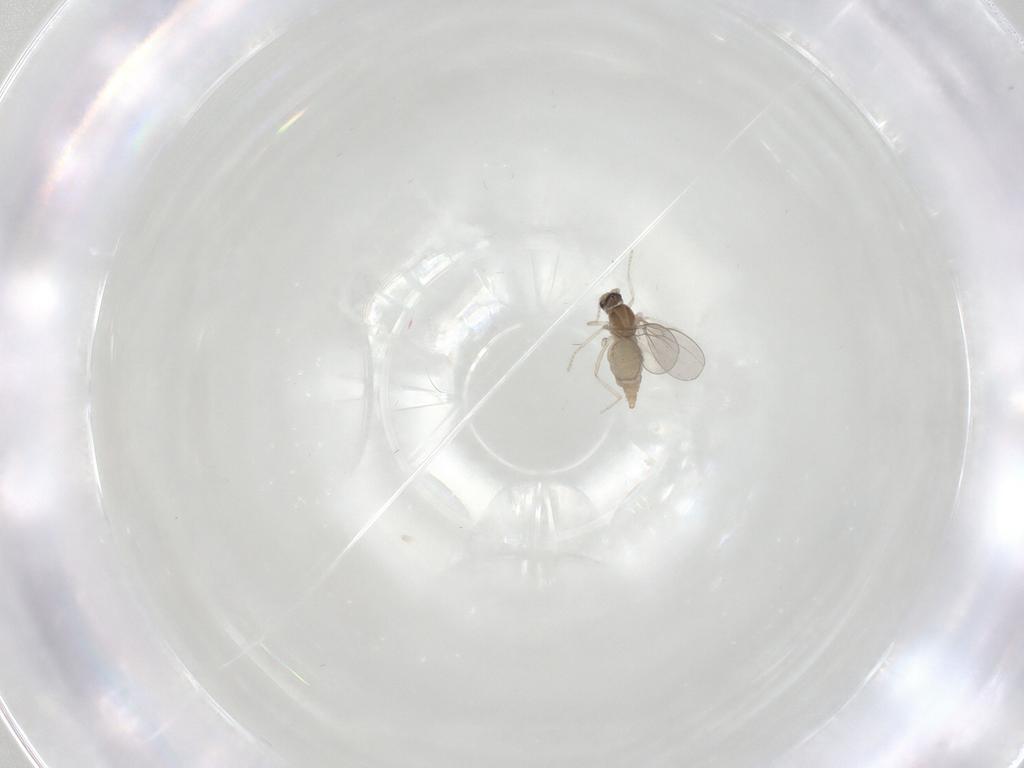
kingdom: Animalia
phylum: Arthropoda
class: Insecta
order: Diptera
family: Cecidomyiidae
